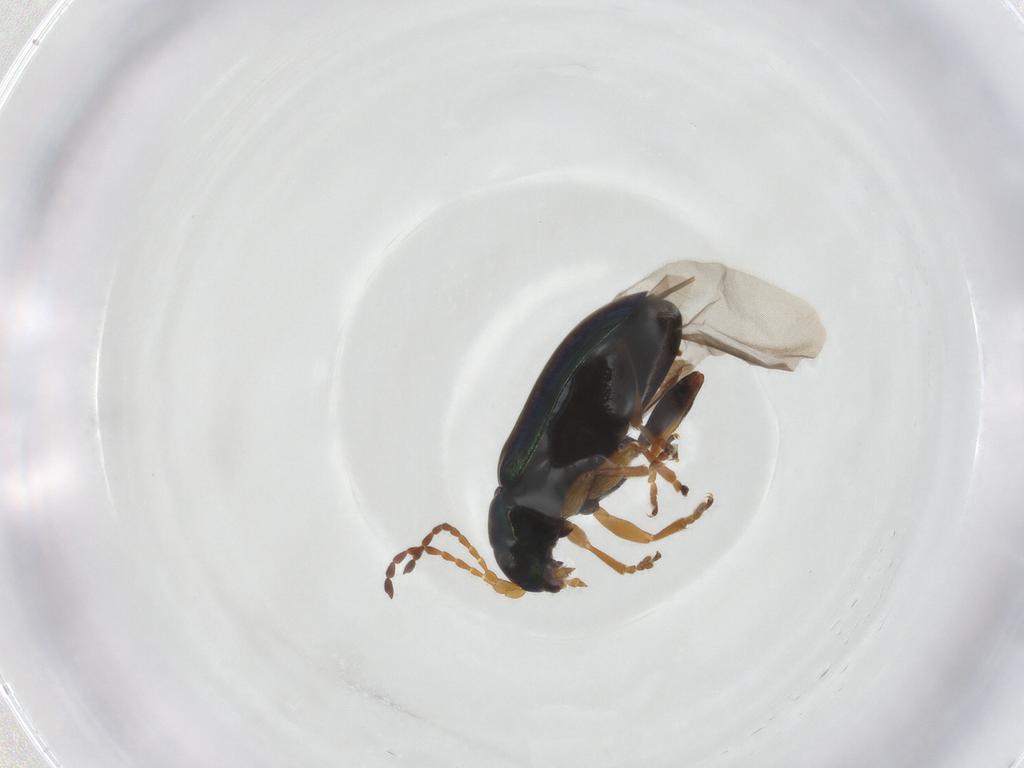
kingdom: Animalia
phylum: Arthropoda
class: Insecta
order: Coleoptera
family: Chrysomelidae
